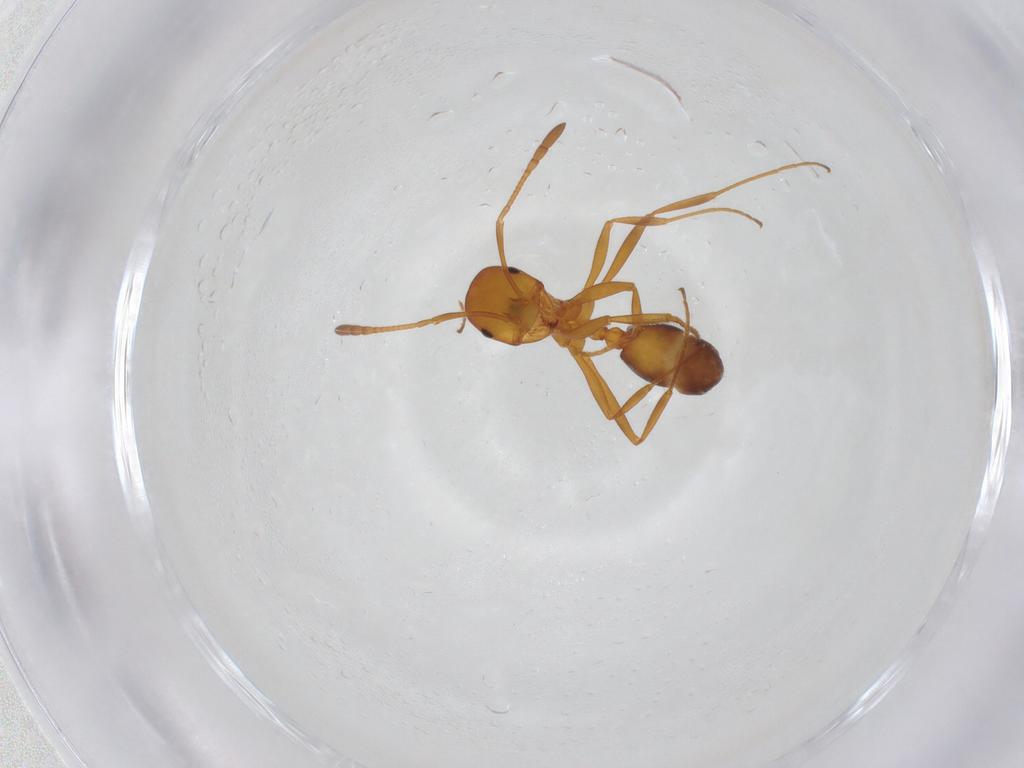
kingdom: Animalia
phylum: Arthropoda
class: Insecta
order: Hymenoptera
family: Formicidae
